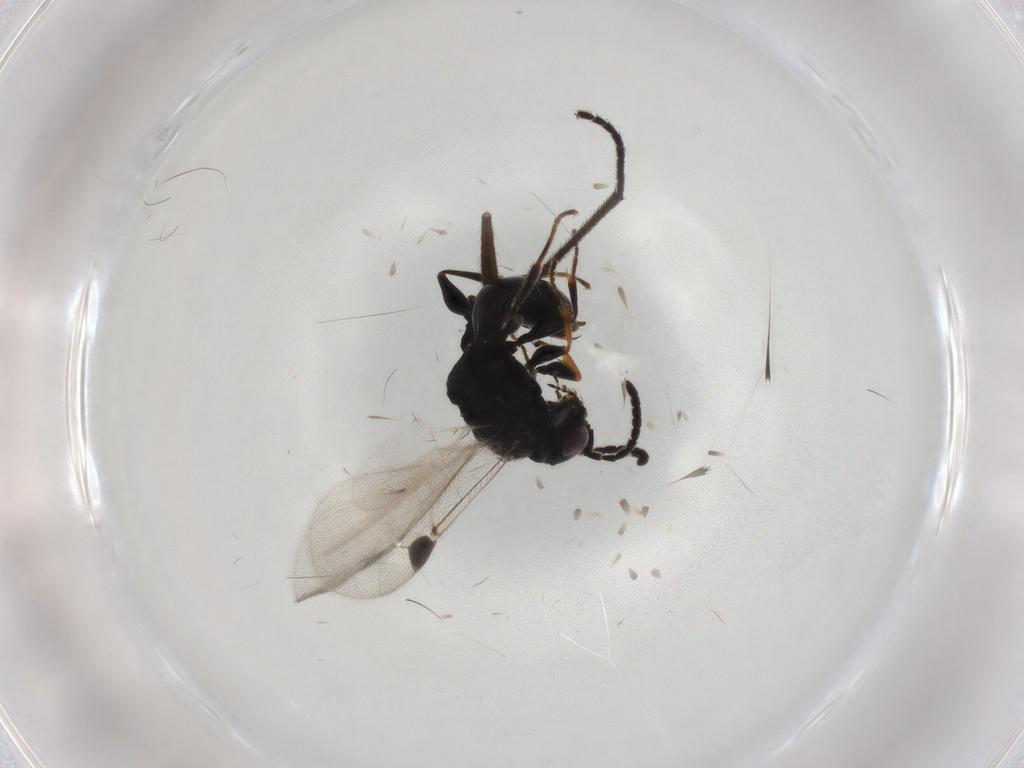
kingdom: Animalia
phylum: Arthropoda
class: Insecta
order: Hymenoptera
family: Dryinidae
